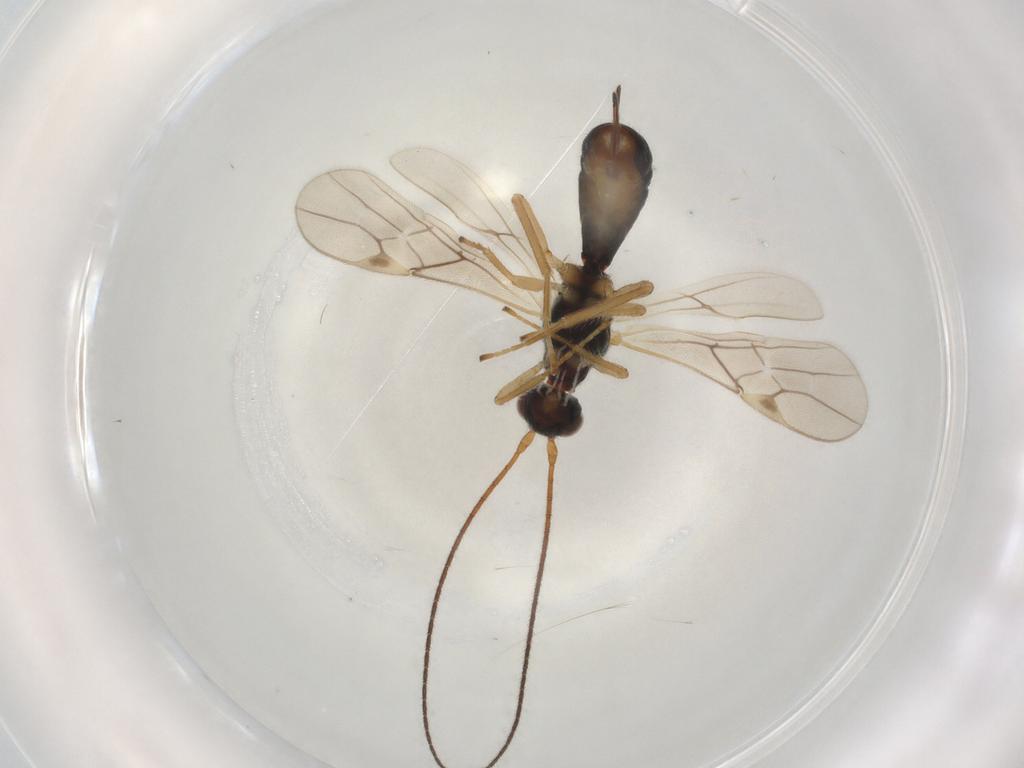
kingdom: Animalia
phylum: Arthropoda
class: Insecta
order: Hymenoptera
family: Braconidae
